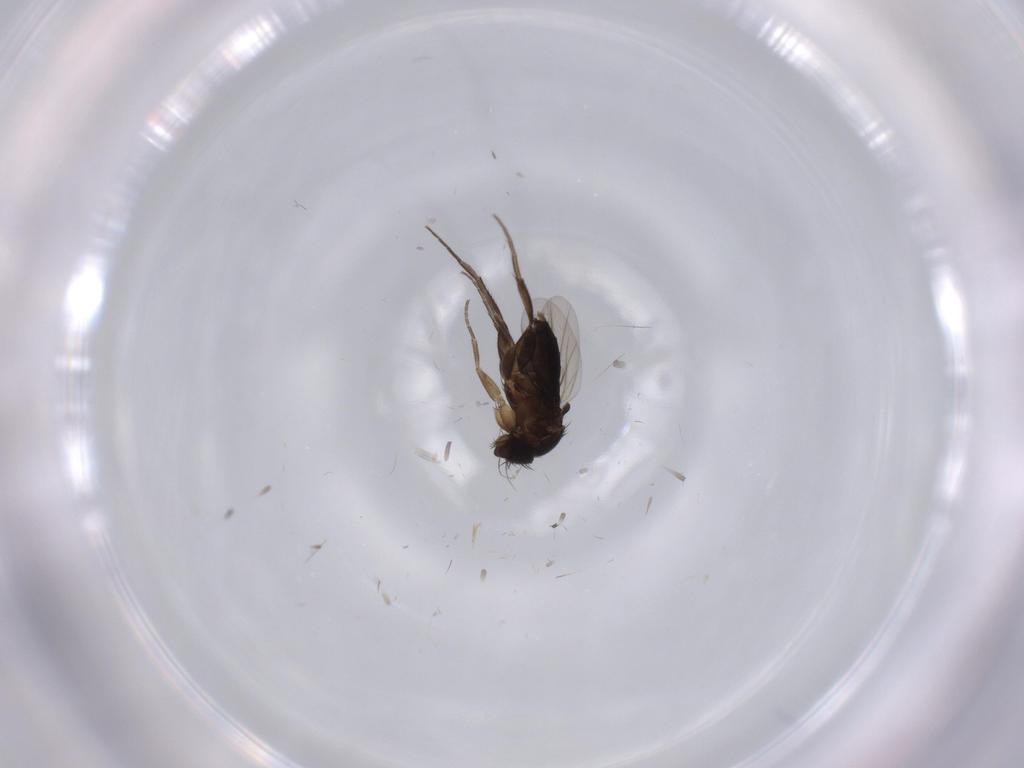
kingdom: Animalia
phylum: Arthropoda
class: Insecta
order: Diptera
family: Phoridae
